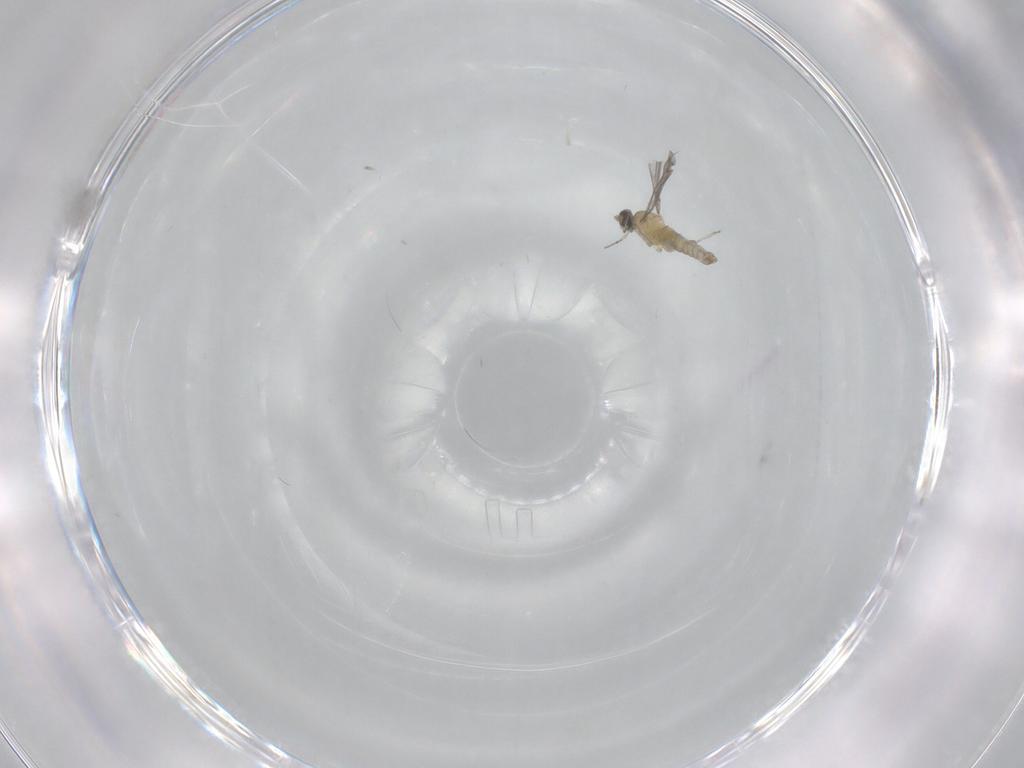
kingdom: Animalia
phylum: Arthropoda
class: Insecta
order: Diptera
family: Cecidomyiidae
